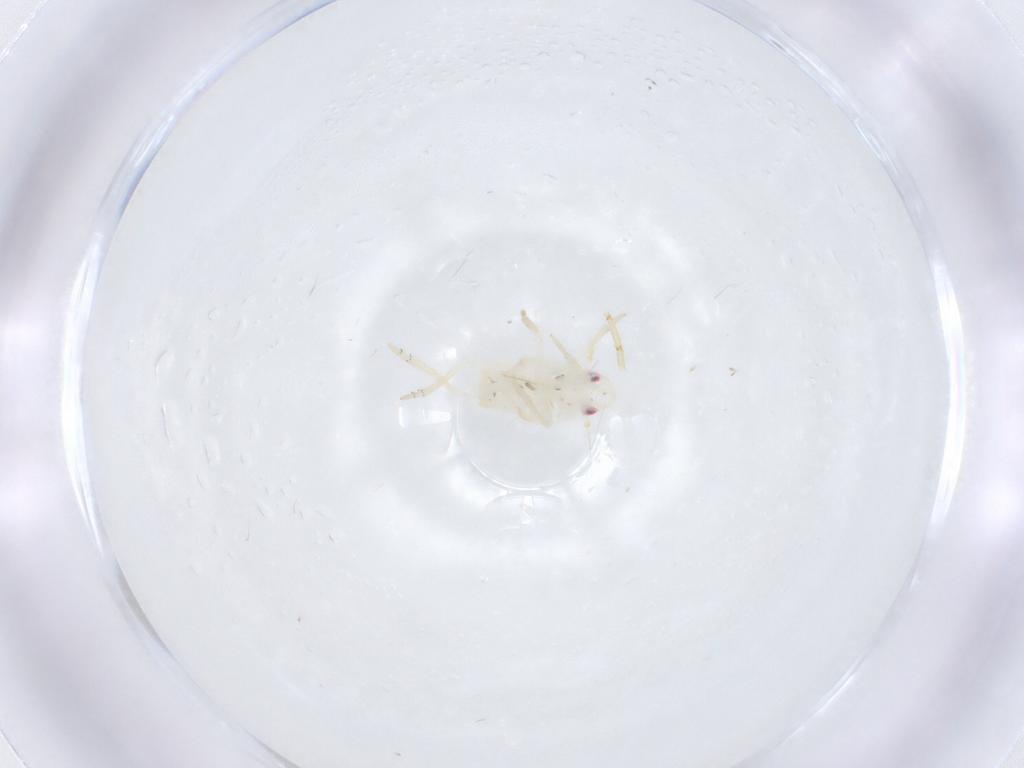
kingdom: Animalia
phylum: Arthropoda
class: Insecta
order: Hemiptera
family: Flatidae
